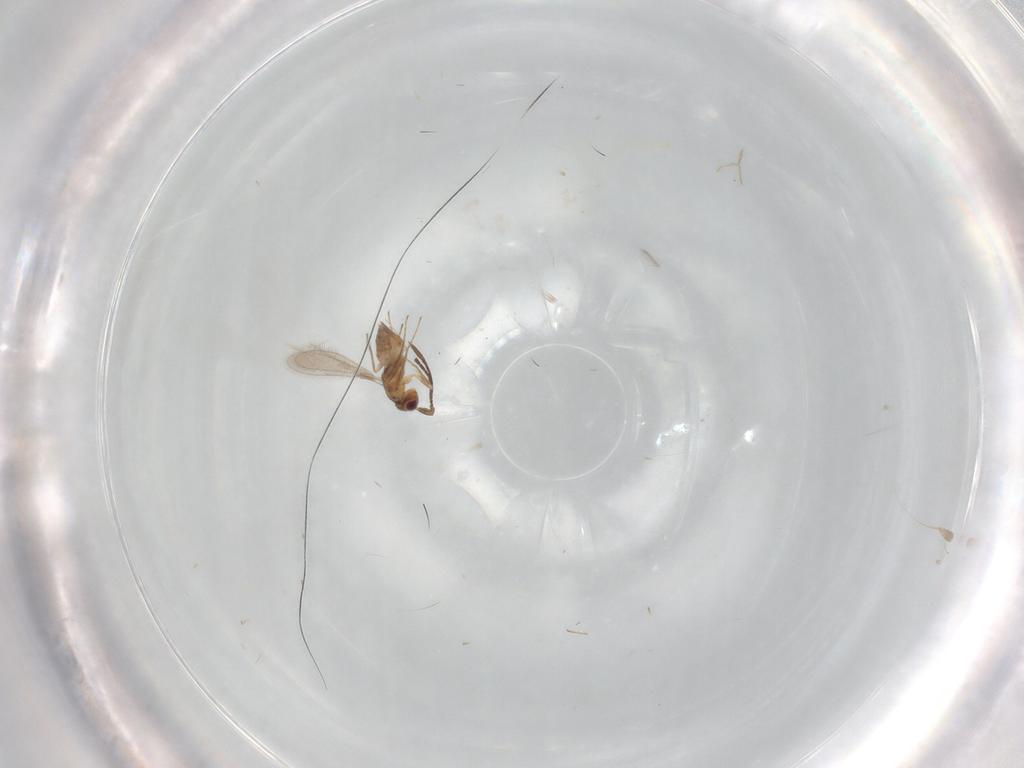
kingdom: Animalia
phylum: Arthropoda
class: Insecta
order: Hymenoptera
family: Mymaridae
